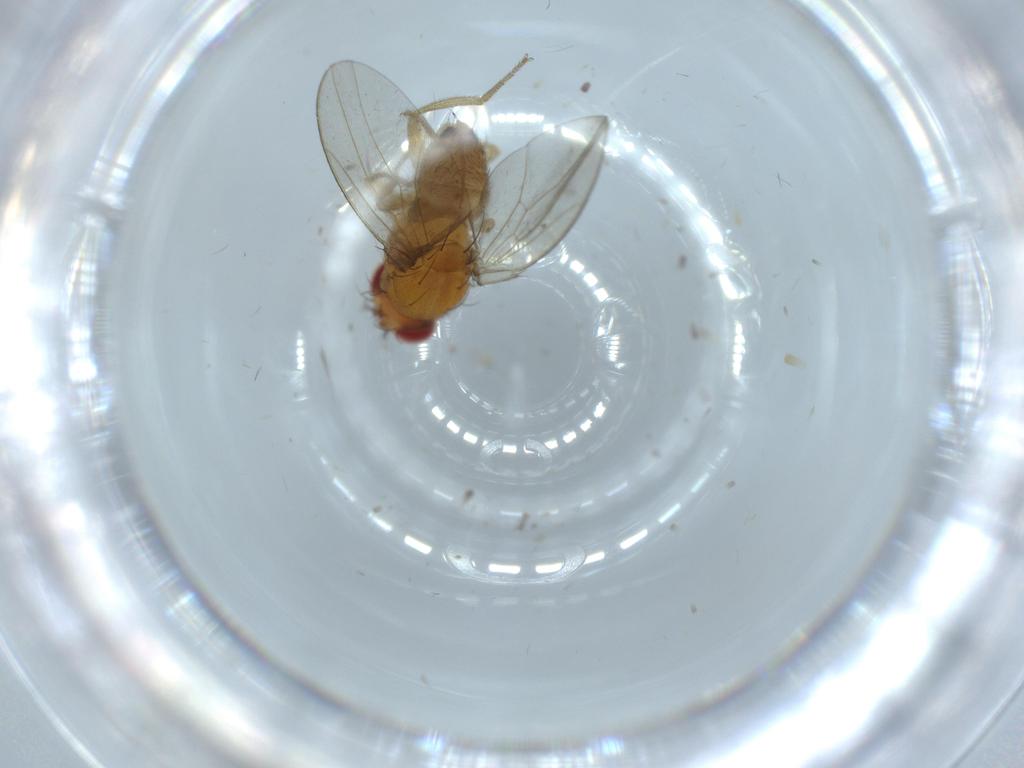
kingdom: Animalia
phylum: Arthropoda
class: Insecta
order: Diptera
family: Drosophilidae
